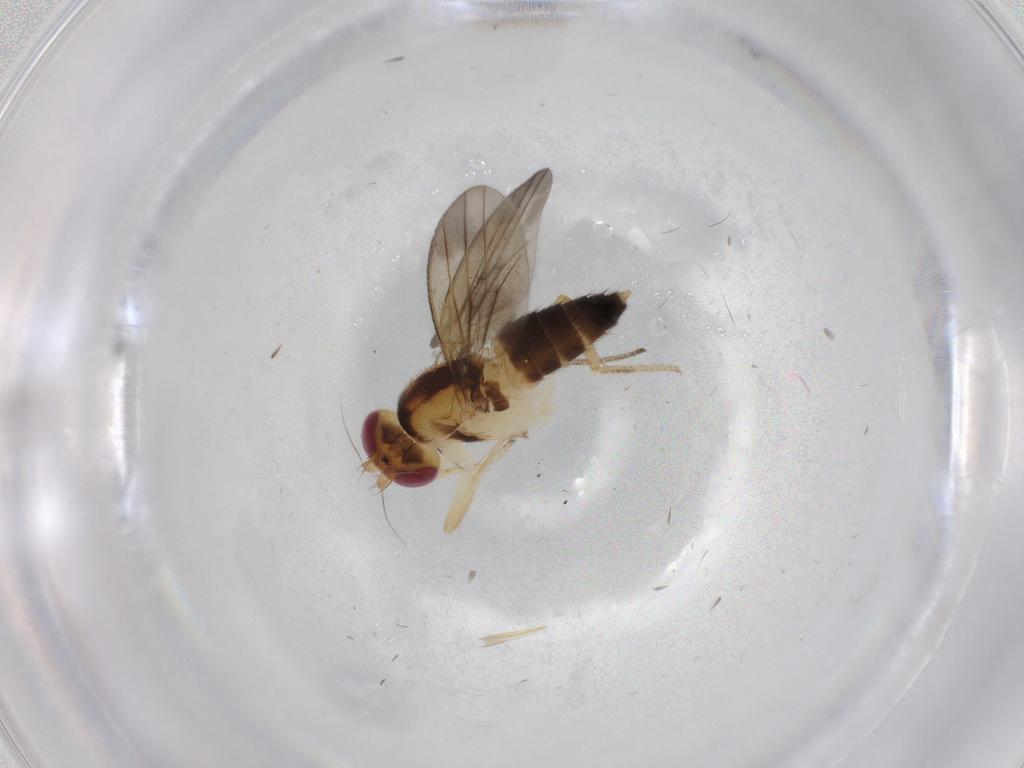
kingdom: Animalia
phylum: Arthropoda
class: Insecta
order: Diptera
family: Clusiidae
